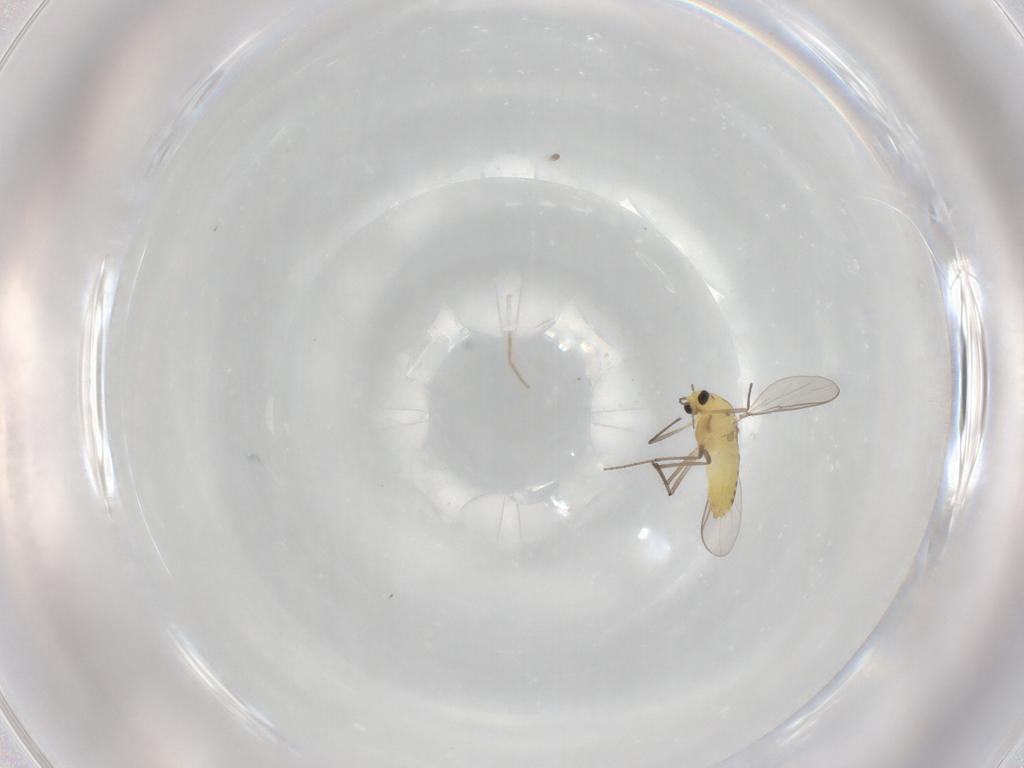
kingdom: Animalia
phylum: Arthropoda
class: Insecta
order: Diptera
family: Chironomidae
